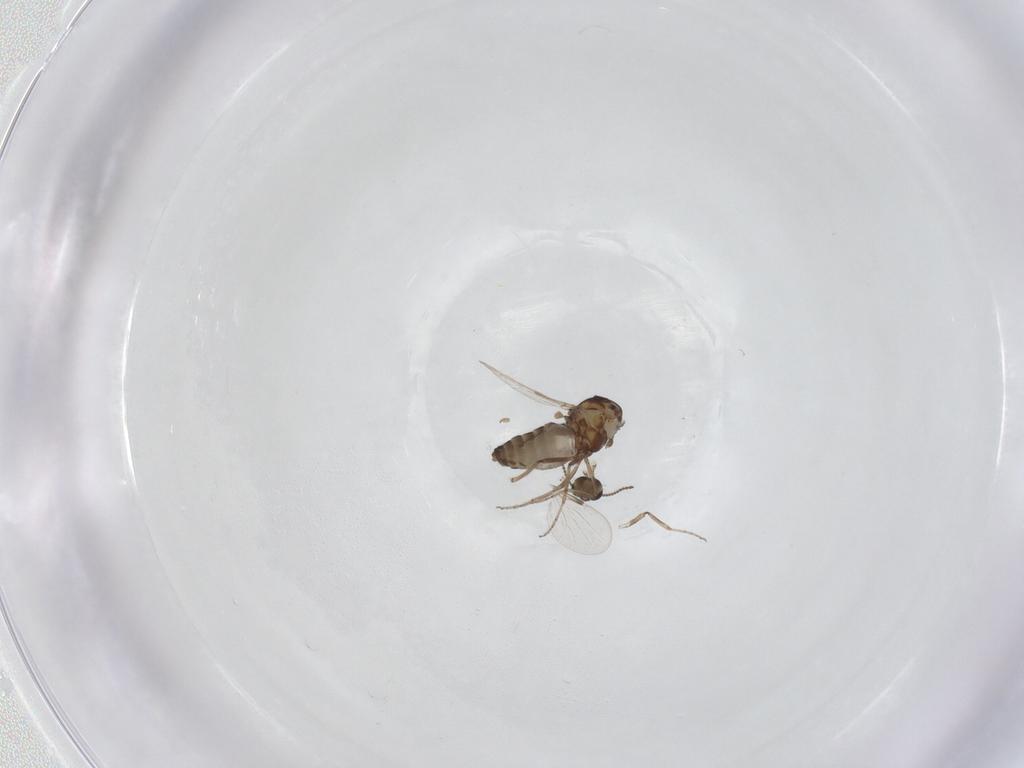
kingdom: Animalia
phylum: Arthropoda
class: Insecta
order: Diptera
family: Ceratopogonidae
